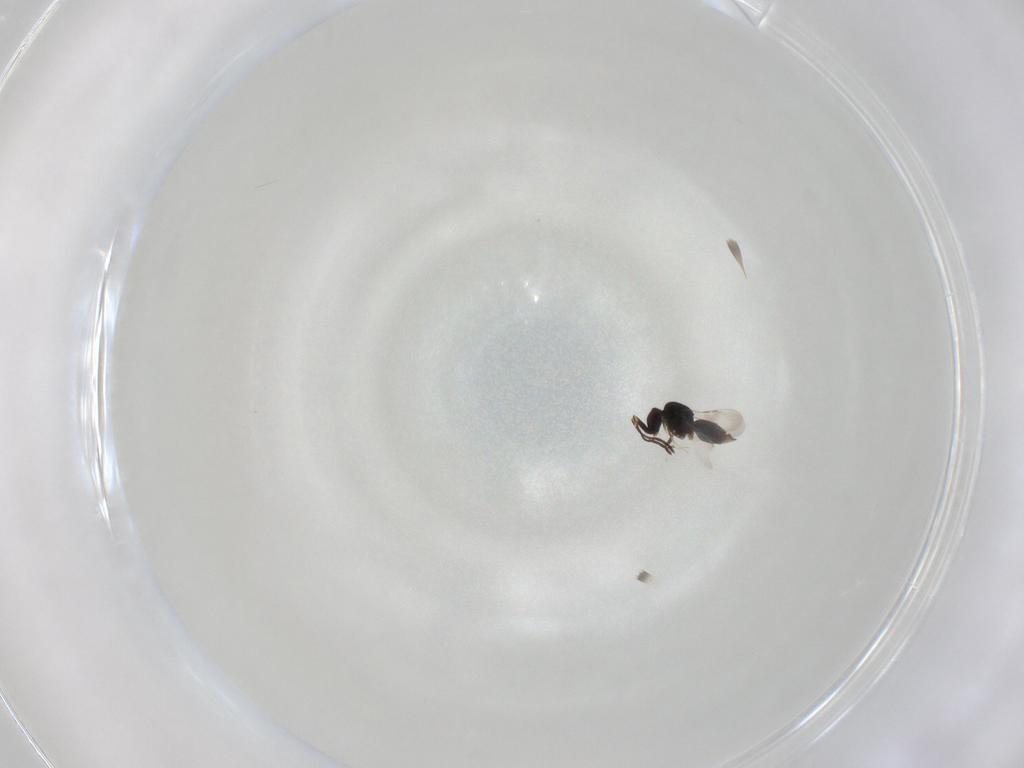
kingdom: Animalia
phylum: Arthropoda
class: Insecta
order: Hymenoptera
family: Scelionidae
